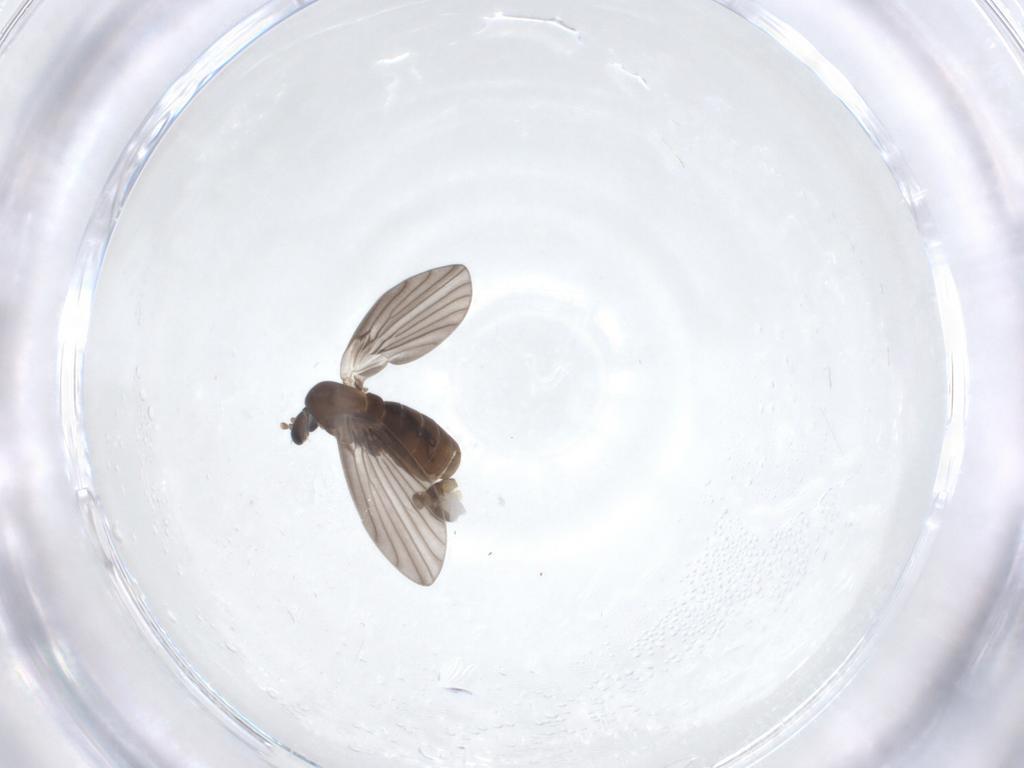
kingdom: Animalia
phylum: Arthropoda
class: Insecta
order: Diptera
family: Psychodidae
